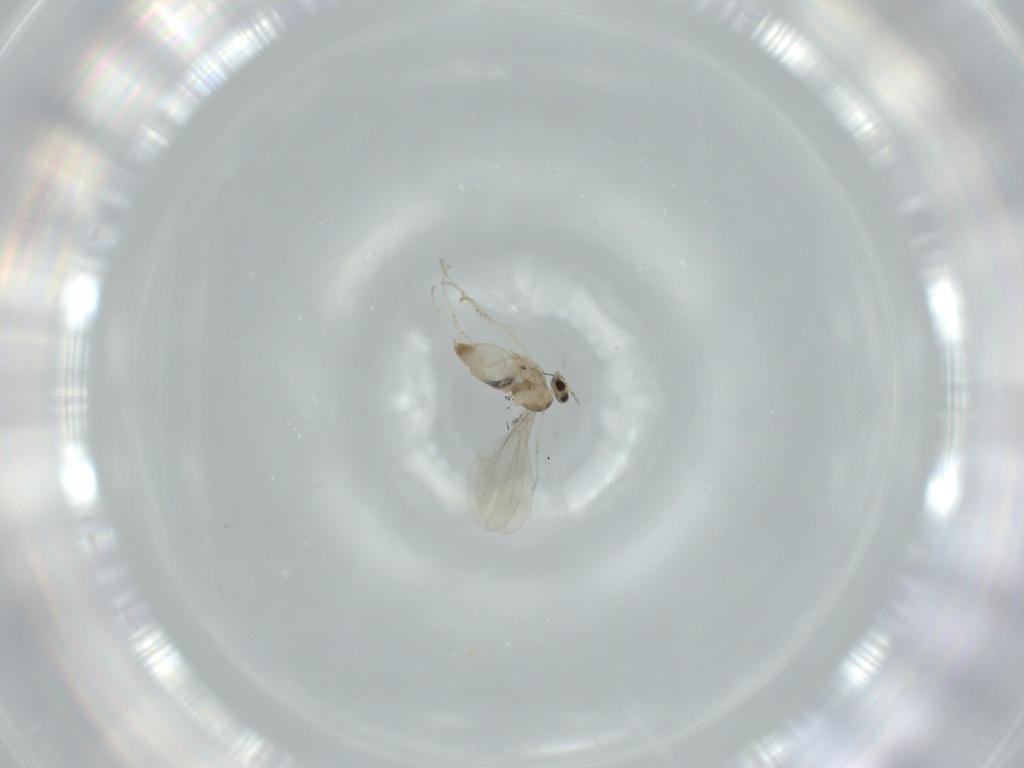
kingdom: Animalia
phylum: Arthropoda
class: Insecta
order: Diptera
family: Cecidomyiidae
